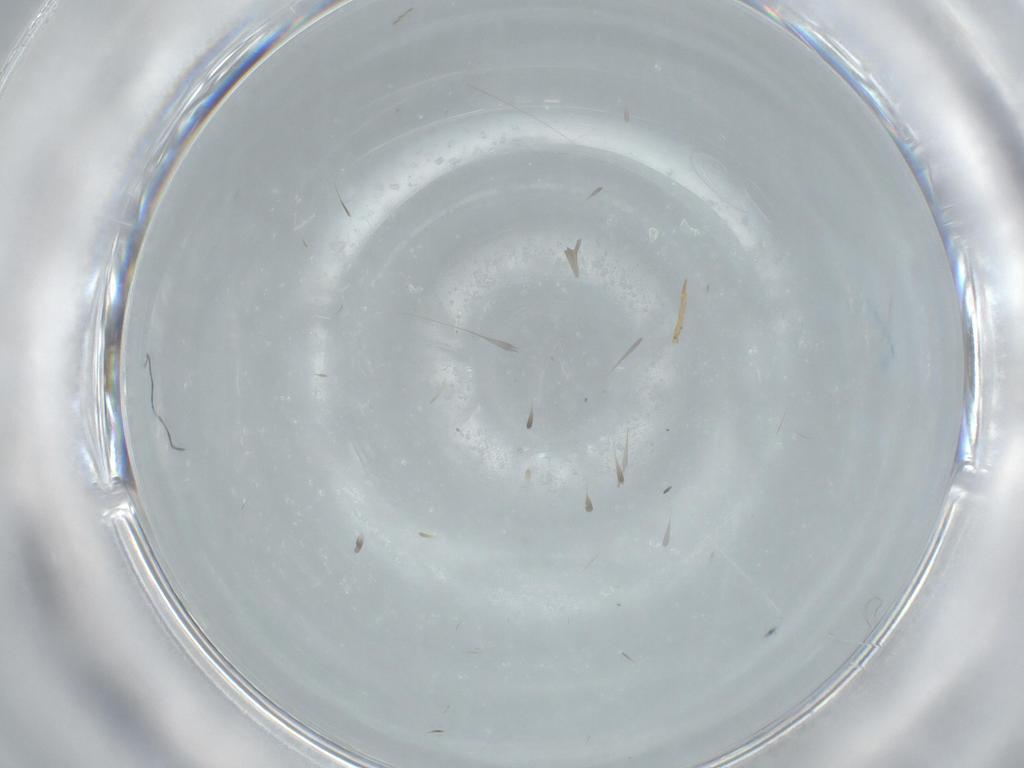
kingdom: Animalia
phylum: Arthropoda
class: Insecta
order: Diptera
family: Cecidomyiidae
